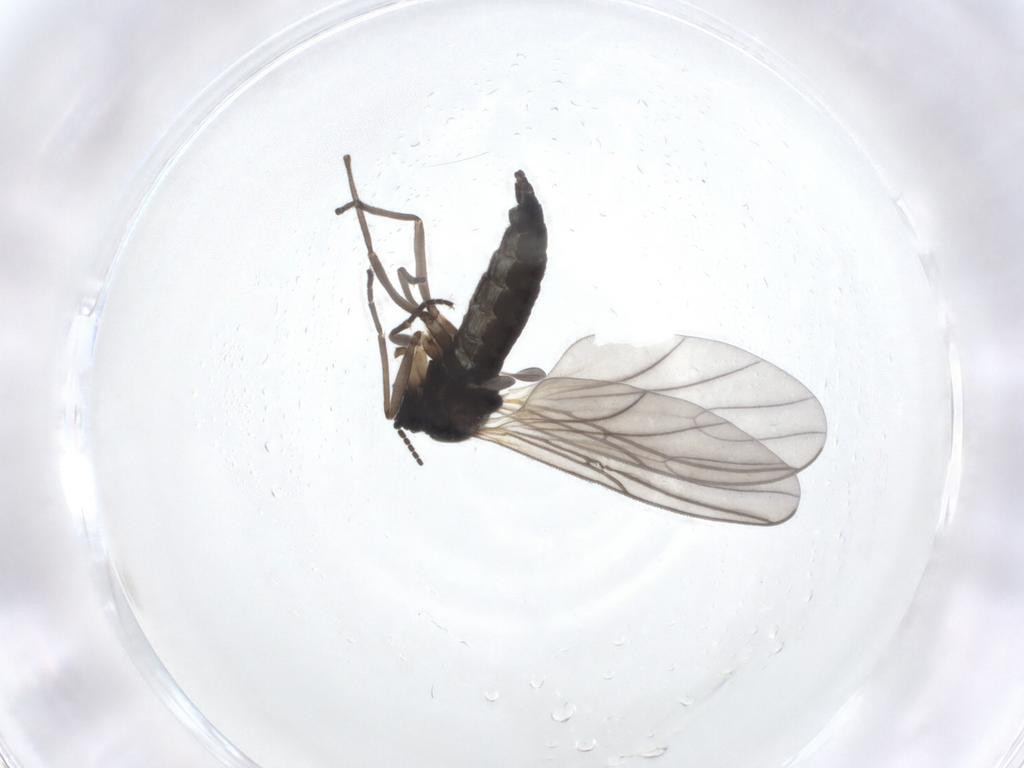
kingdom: Animalia
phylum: Arthropoda
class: Insecta
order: Diptera
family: Sciaridae
